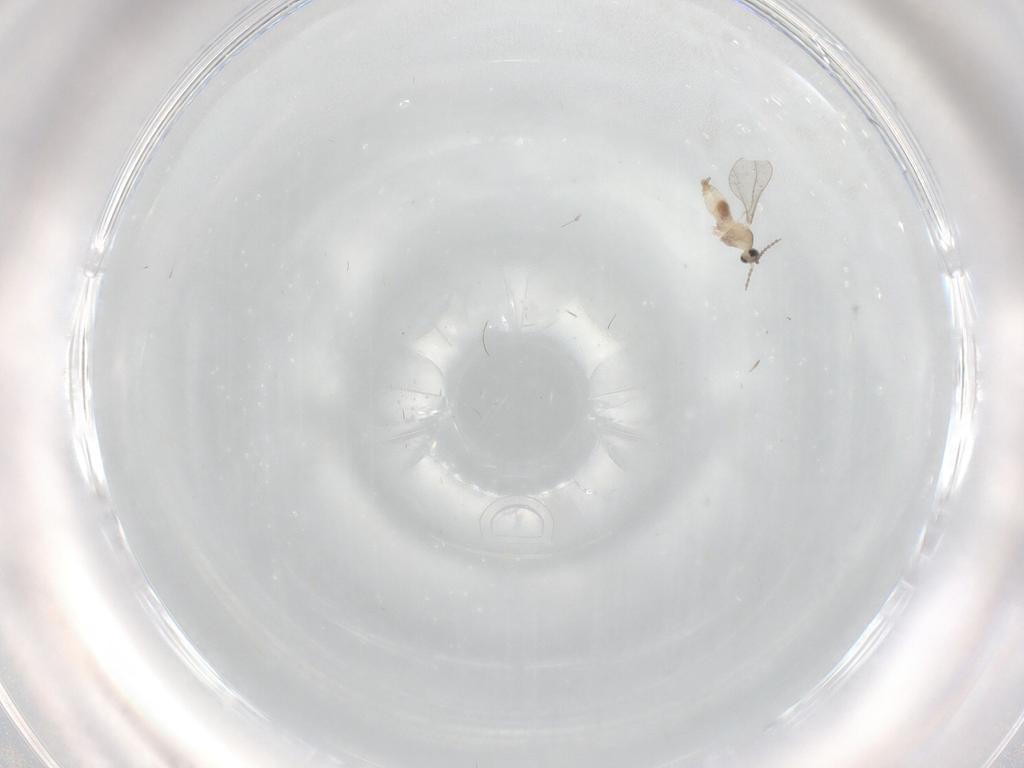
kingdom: Animalia
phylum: Arthropoda
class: Insecta
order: Diptera
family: Cecidomyiidae
